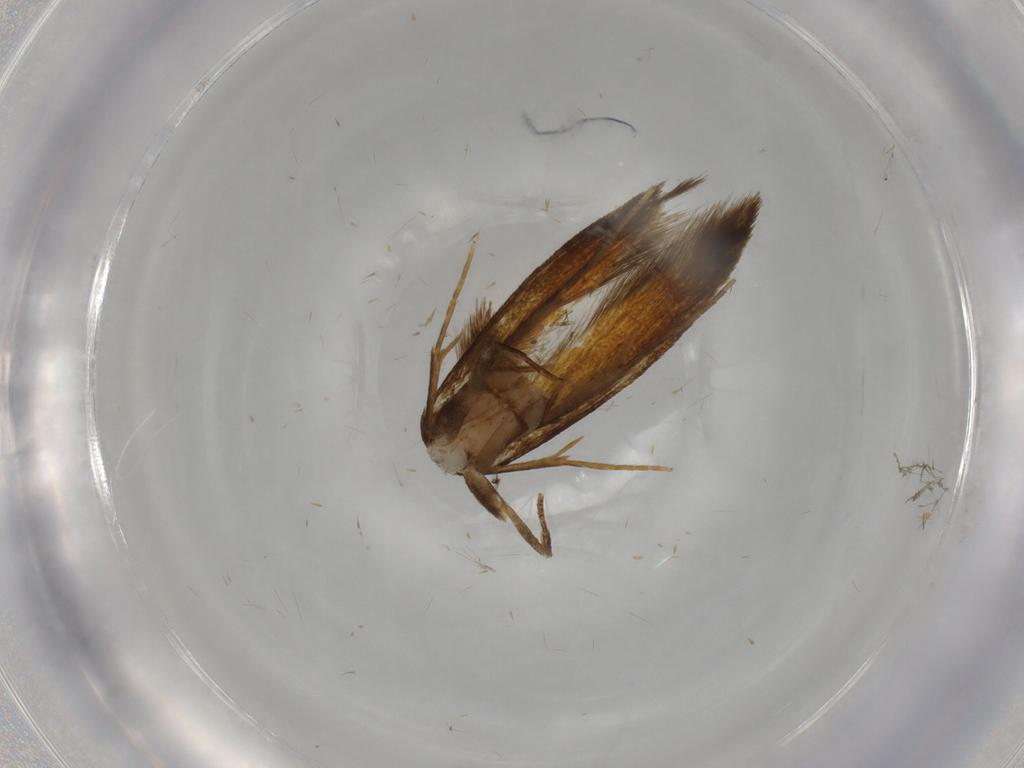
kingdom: Animalia
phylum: Arthropoda
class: Insecta
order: Lepidoptera
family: Tineidae
